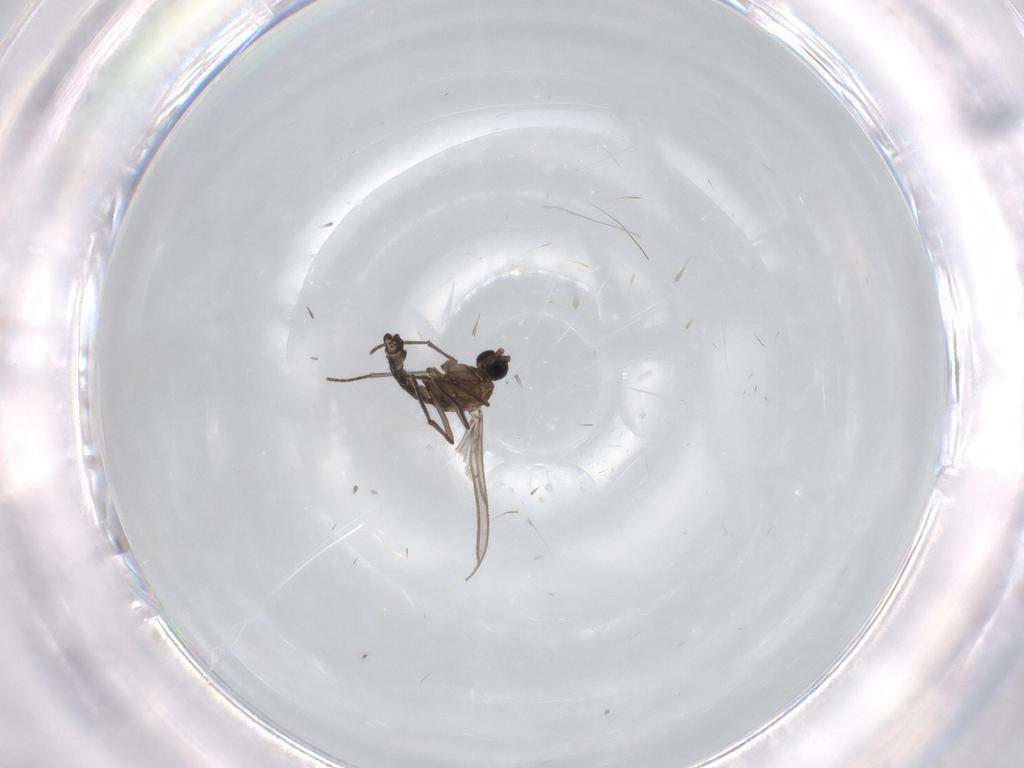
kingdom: Animalia
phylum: Arthropoda
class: Insecta
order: Diptera
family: Sciaridae
